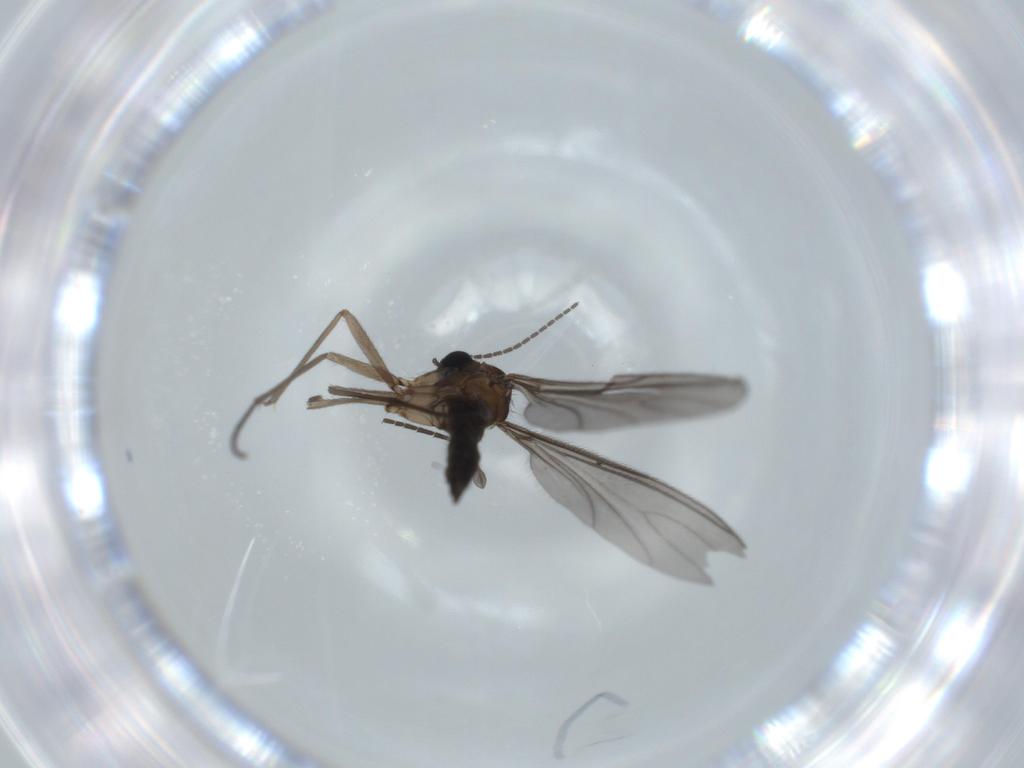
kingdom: Animalia
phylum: Arthropoda
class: Insecta
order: Diptera
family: Sciaridae
